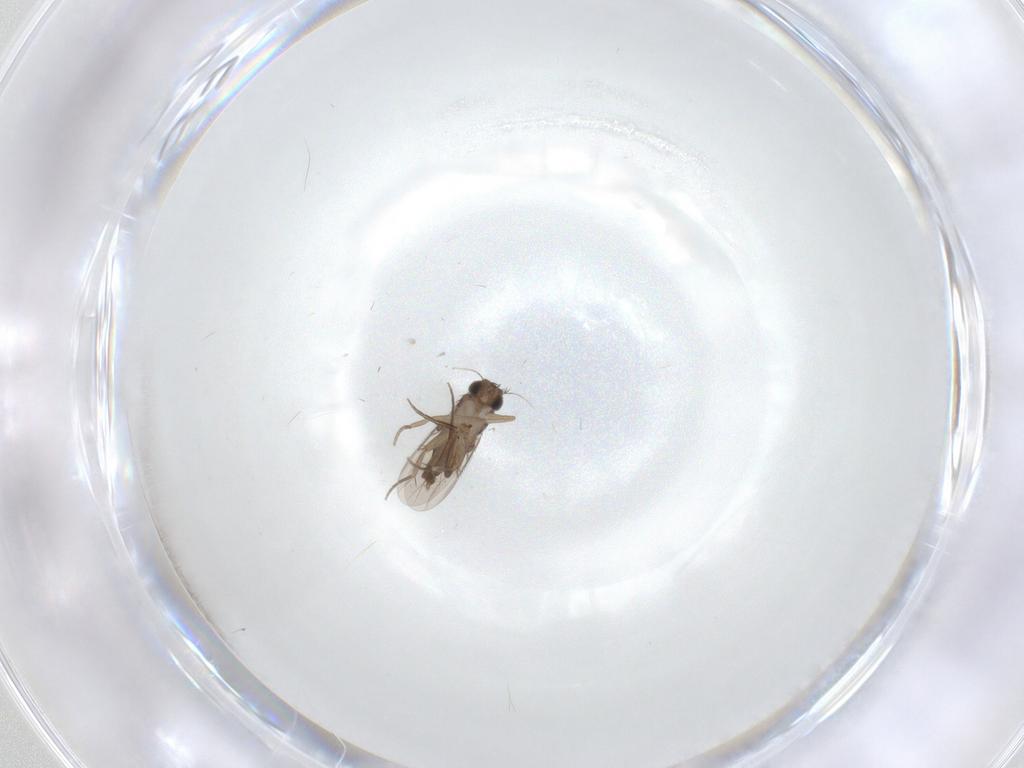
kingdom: Animalia
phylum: Arthropoda
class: Insecta
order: Diptera
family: Phoridae
